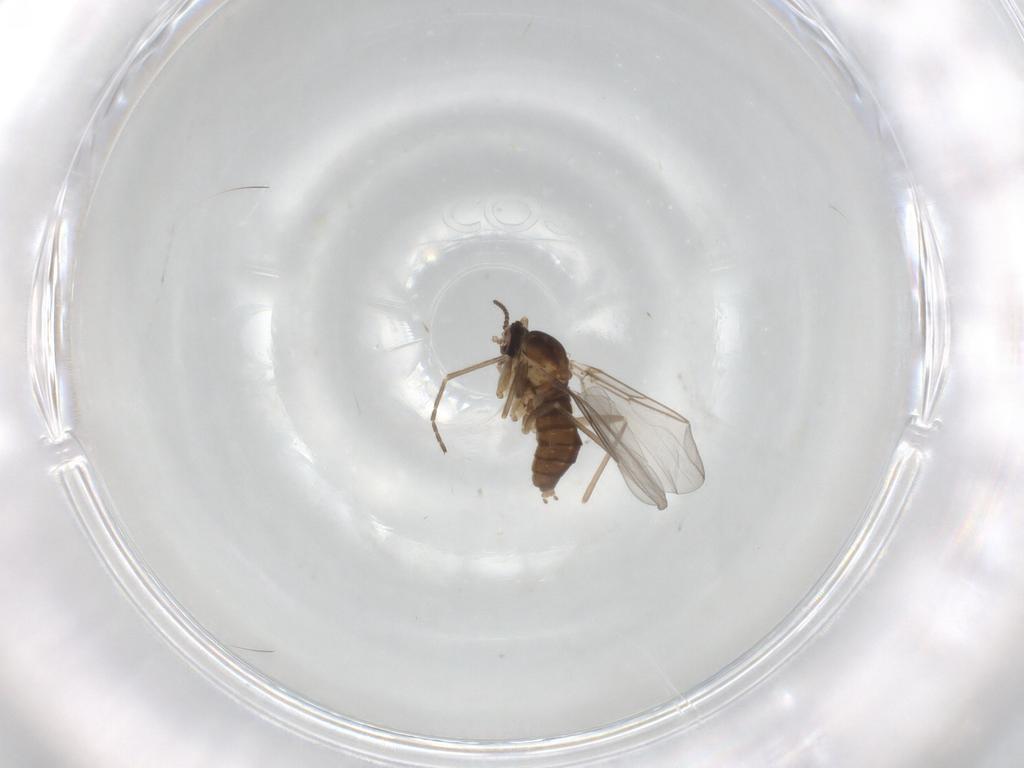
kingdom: Animalia
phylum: Arthropoda
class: Insecta
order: Diptera
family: Cecidomyiidae
